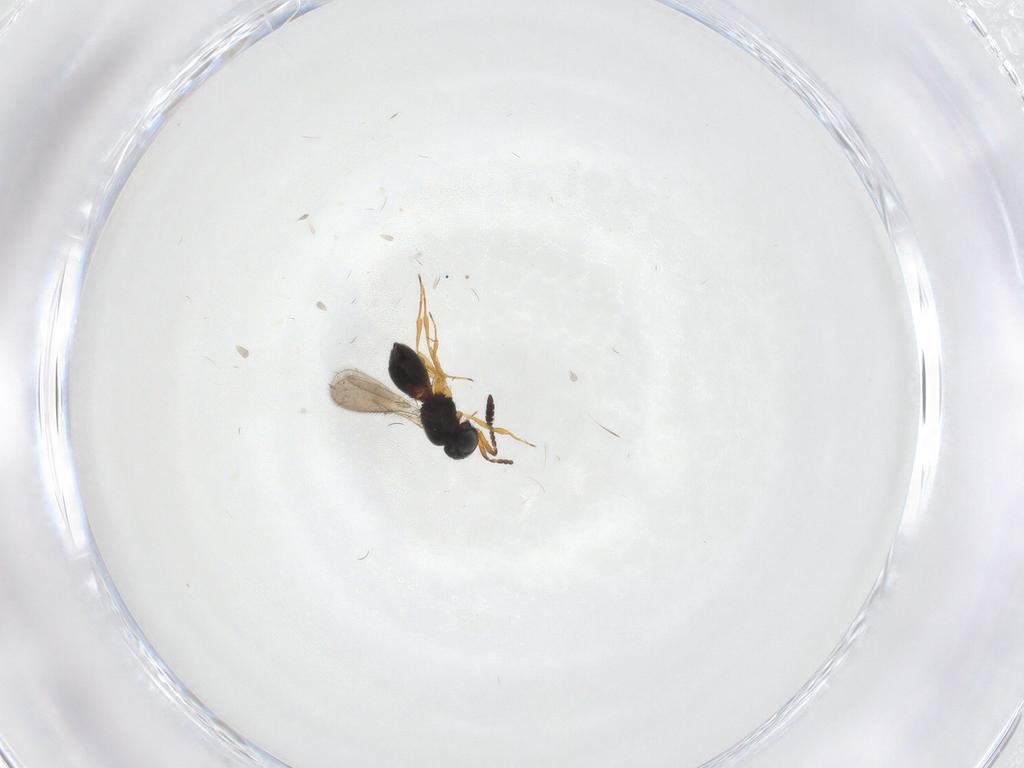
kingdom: Animalia
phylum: Arthropoda
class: Insecta
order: Hymenoptera
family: Scelionidae
